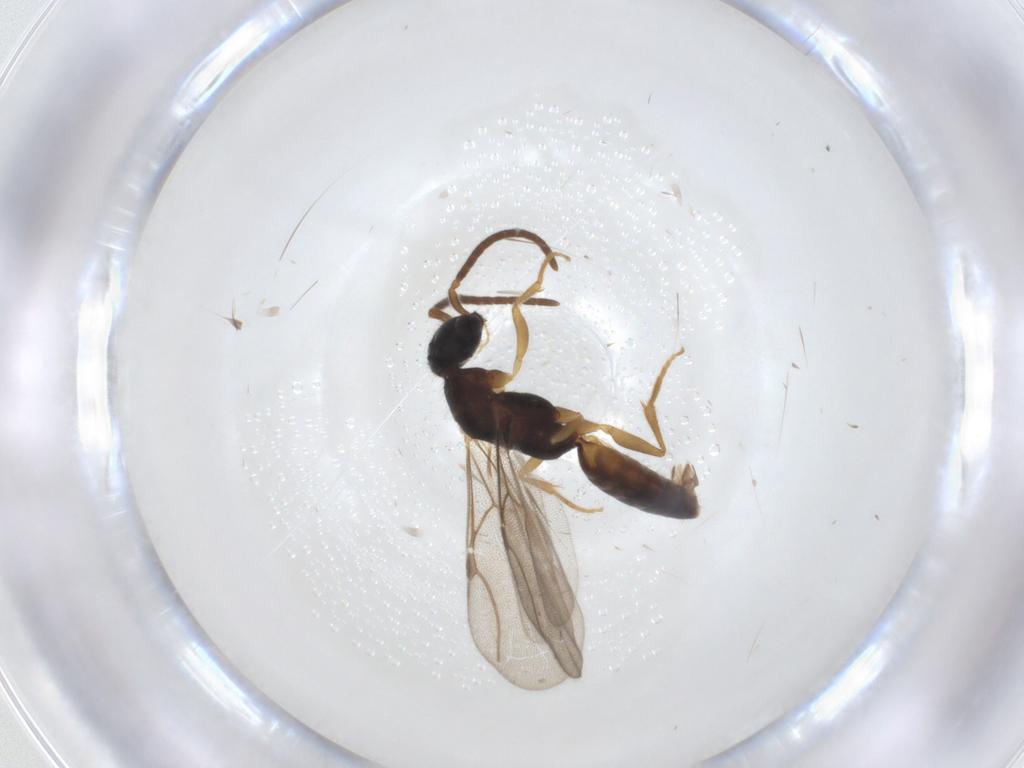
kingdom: Animalia
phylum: Arthropoda
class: Insecta
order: Hymenoptera
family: Bethylidae
